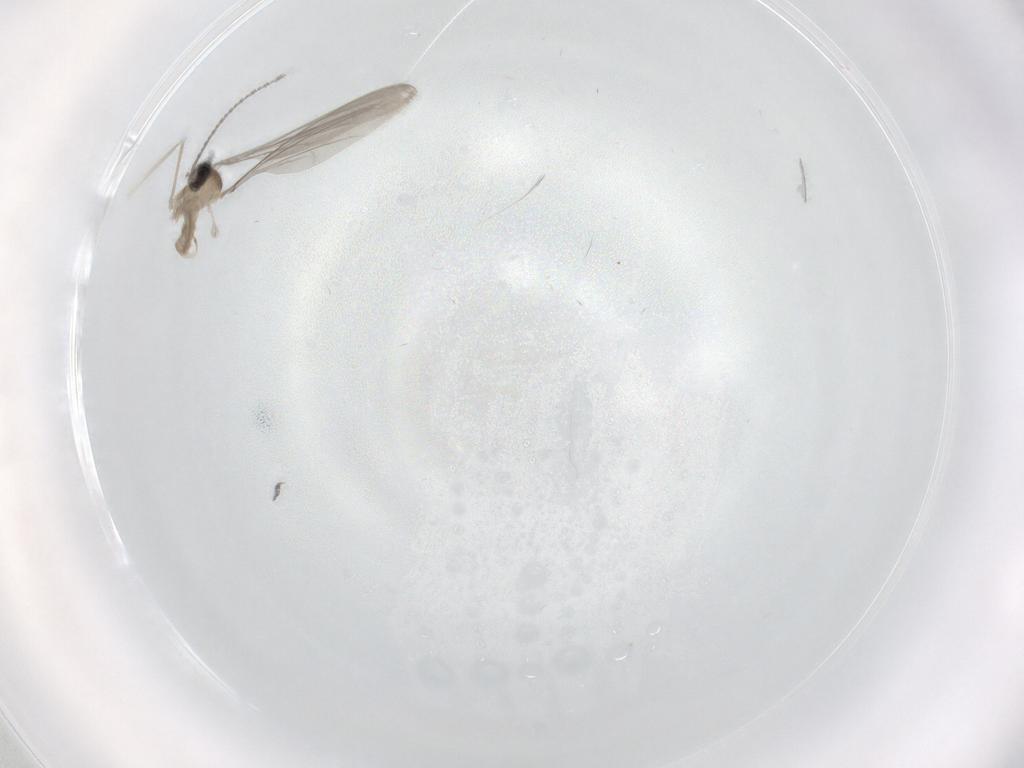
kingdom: Animalia
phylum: Arthropoda
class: Insecta
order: Diptera
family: Cecidomyiidae
